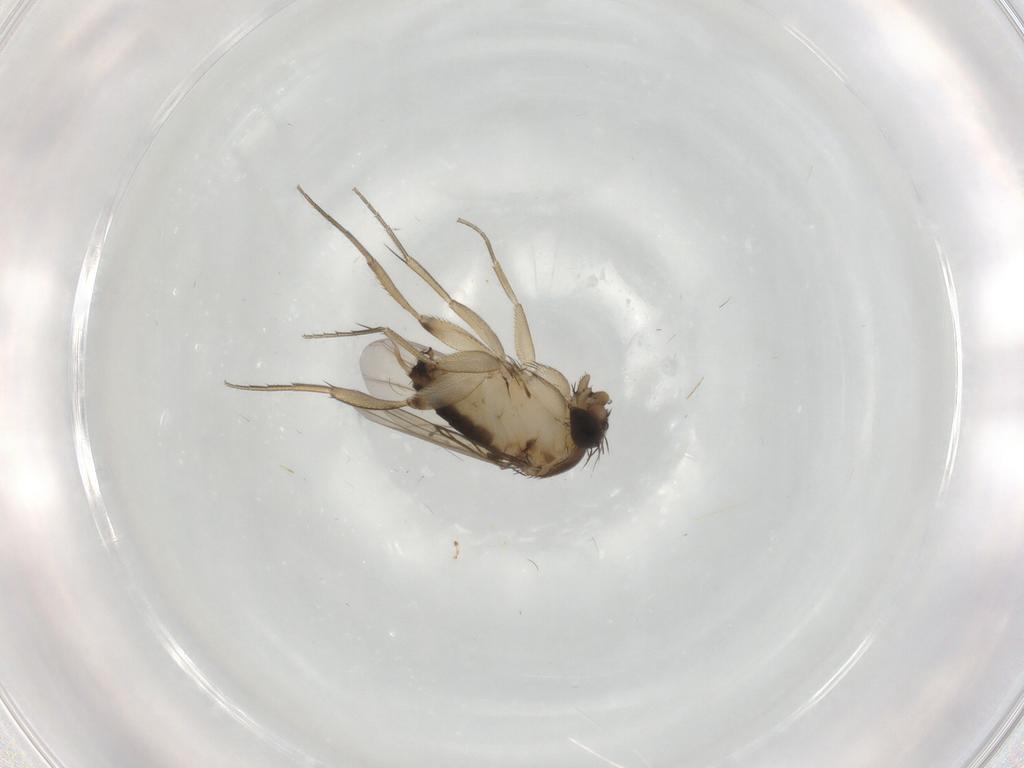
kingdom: Animalia
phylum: Arthropoda
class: Insecta
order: Diptera
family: Phoridae
